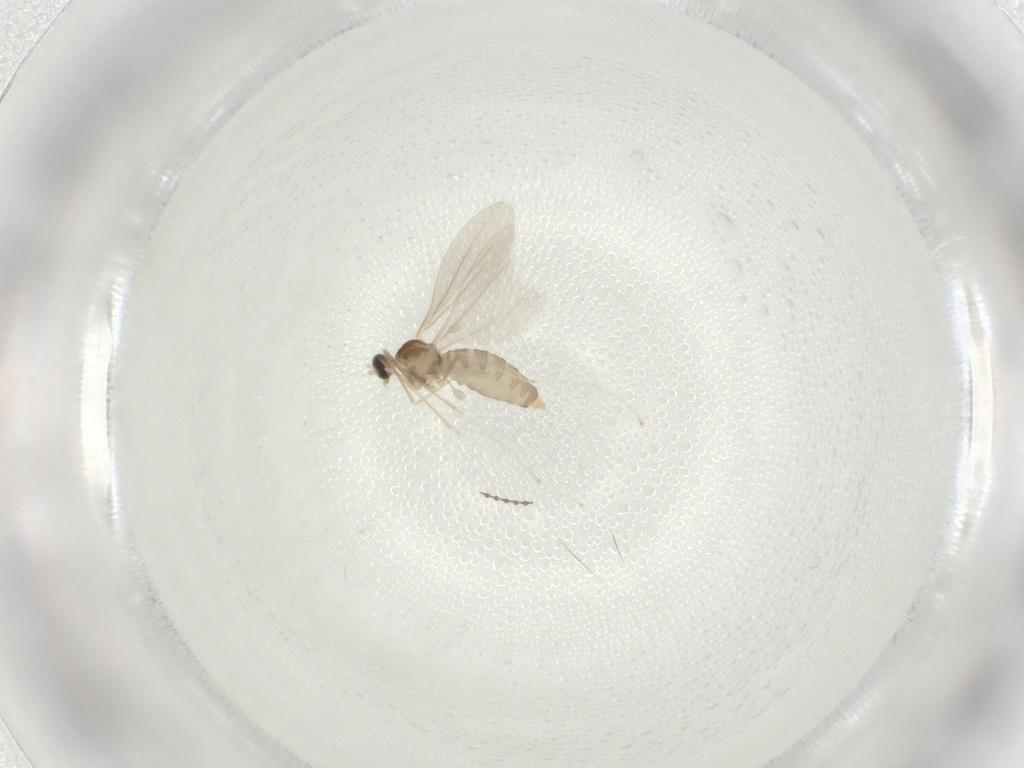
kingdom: Animalia
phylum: Arthropoda
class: Insecta
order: Diptera
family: Cecidomyiidae
